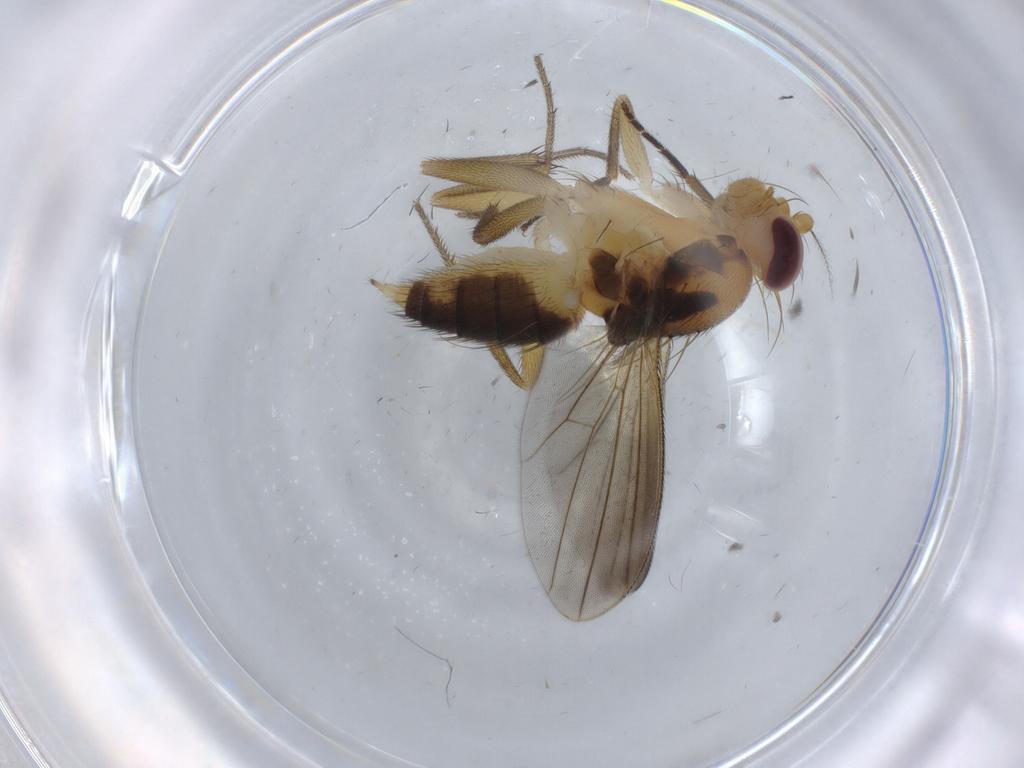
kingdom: Animalia
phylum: Arthropoda
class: Insecta
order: Diptera
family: Clusiidae
